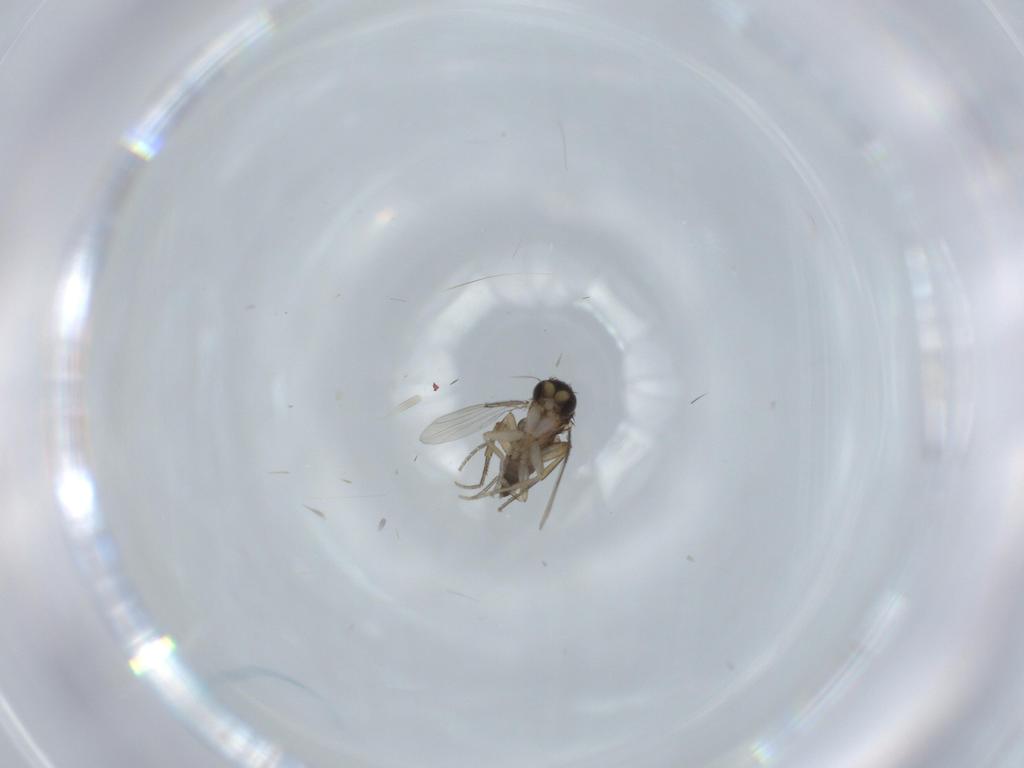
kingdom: Animalia
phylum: Arthropoda
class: Insecta
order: Diptera
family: Phoridae
